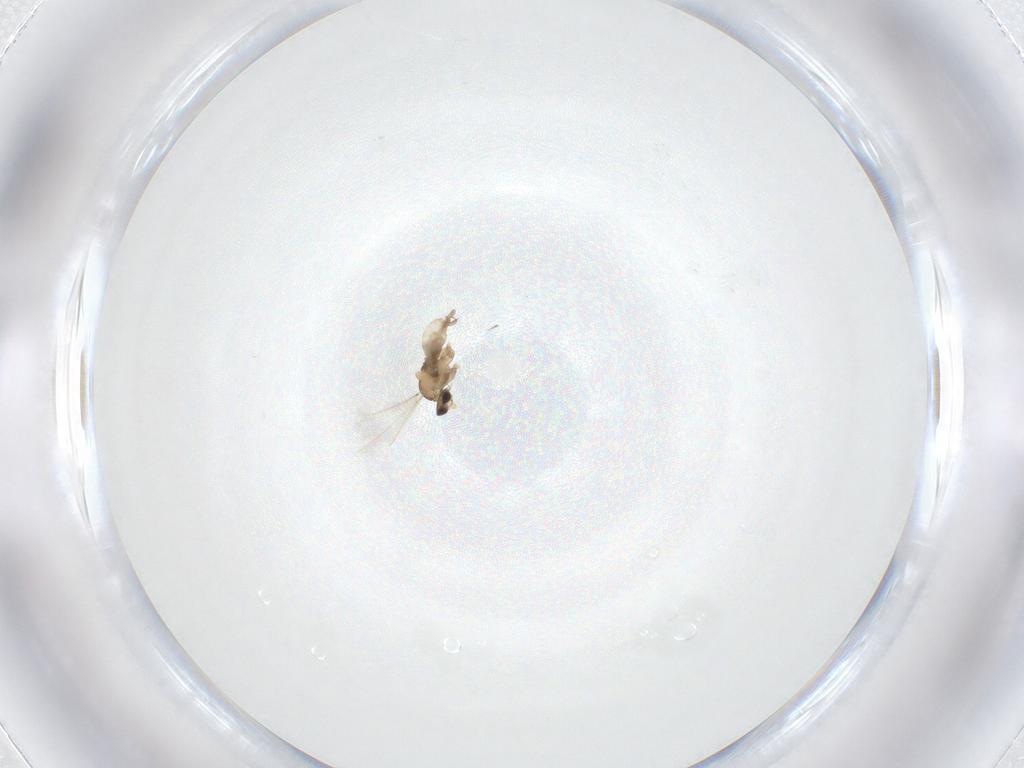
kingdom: Animalia
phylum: Arthropoda
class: Insecta
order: Diptera
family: Cecidomyiidae
